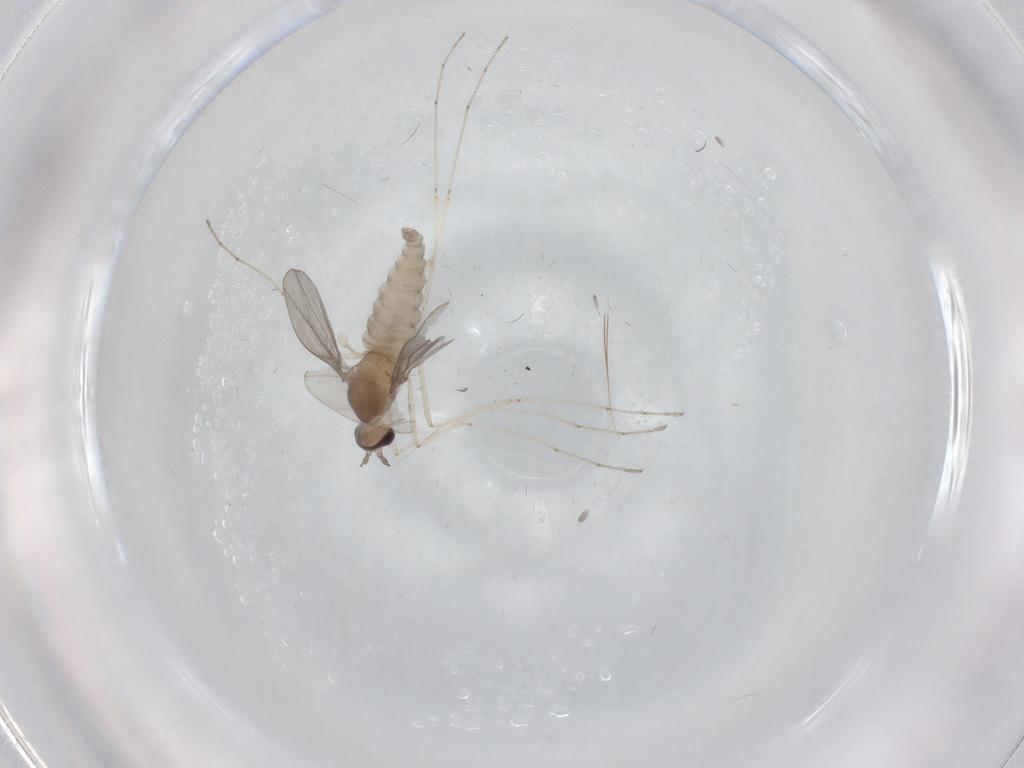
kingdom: Animalia
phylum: Arthropoda
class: Insecta
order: Diptera
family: Cecidomyiidae
